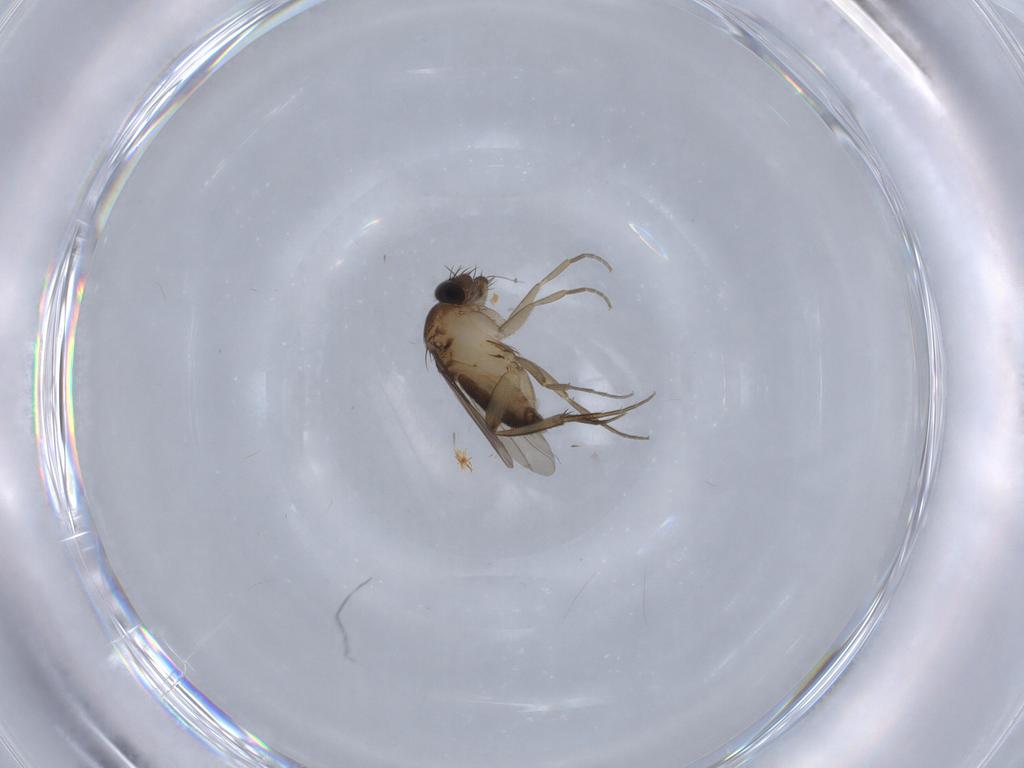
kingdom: Animalia
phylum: Arthropoda
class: Insecta
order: Diptera
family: Phoridae
